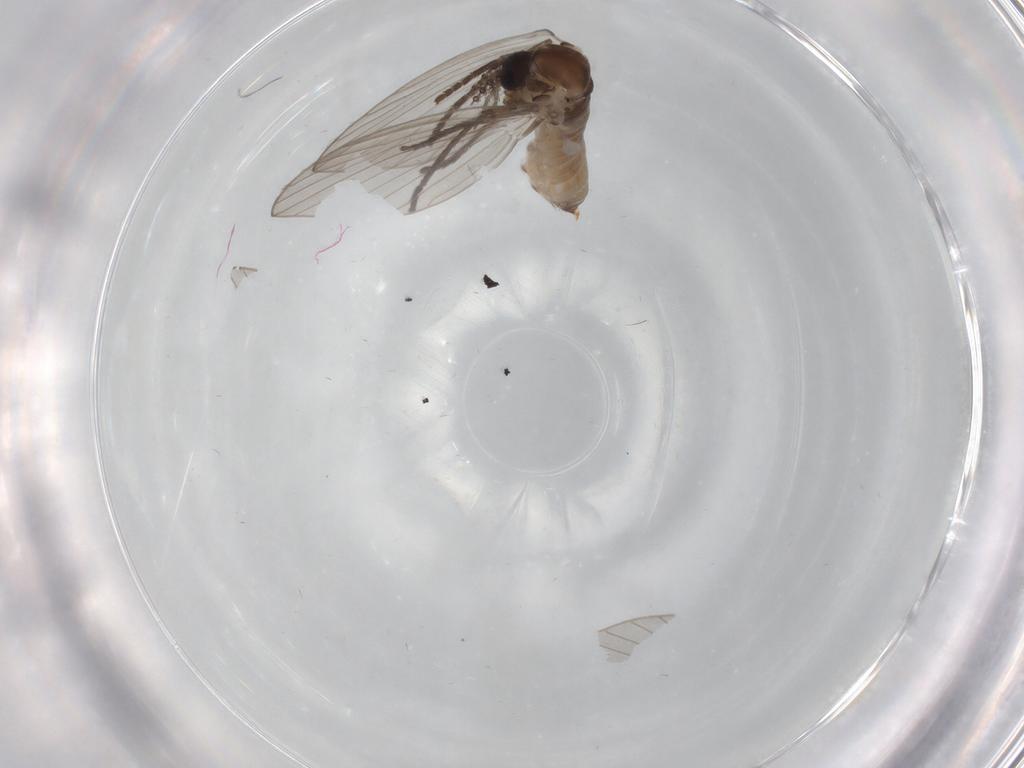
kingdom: Animalia
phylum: Arthropoda
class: Insecta
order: Diptera
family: Psychodidae
